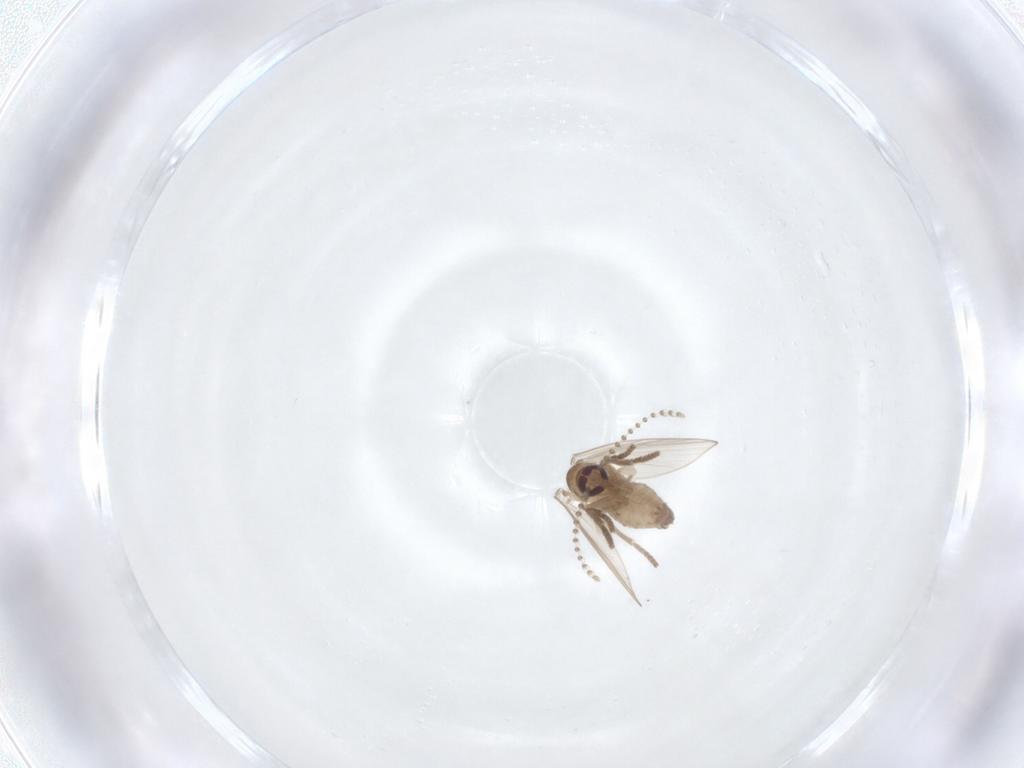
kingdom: Animalia
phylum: Arthropoda
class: Insecta
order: Diptera
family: Psychodidae
